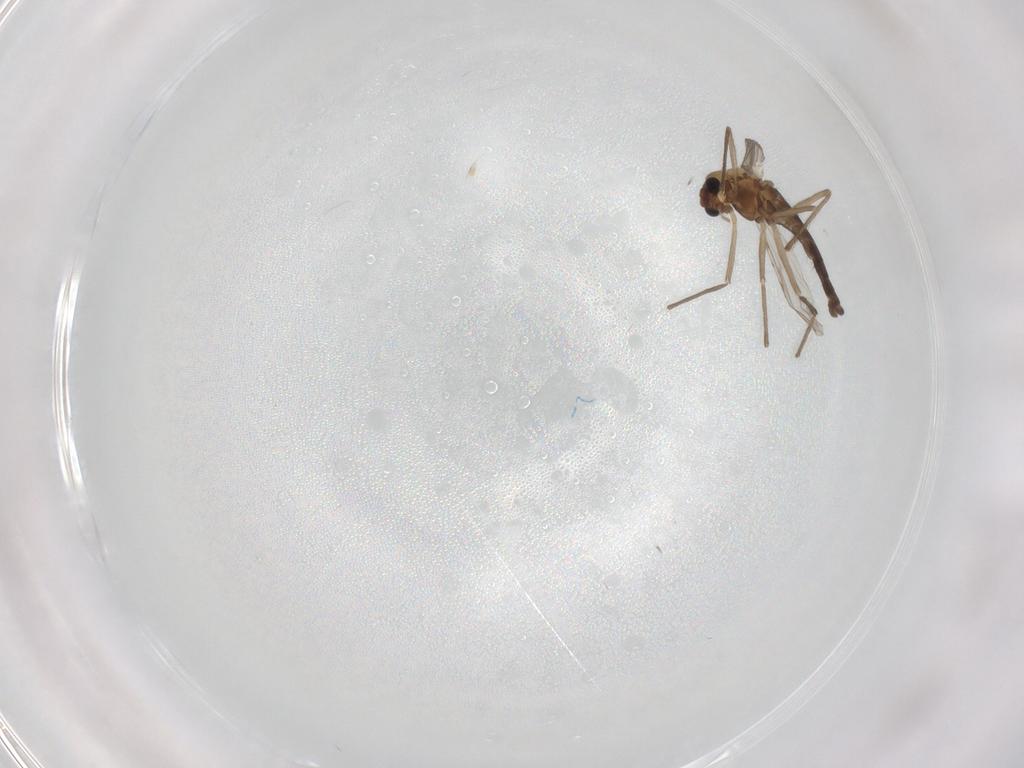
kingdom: Animalia
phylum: Arthropoda
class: Insecta
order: Diptera
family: Chironomidae
